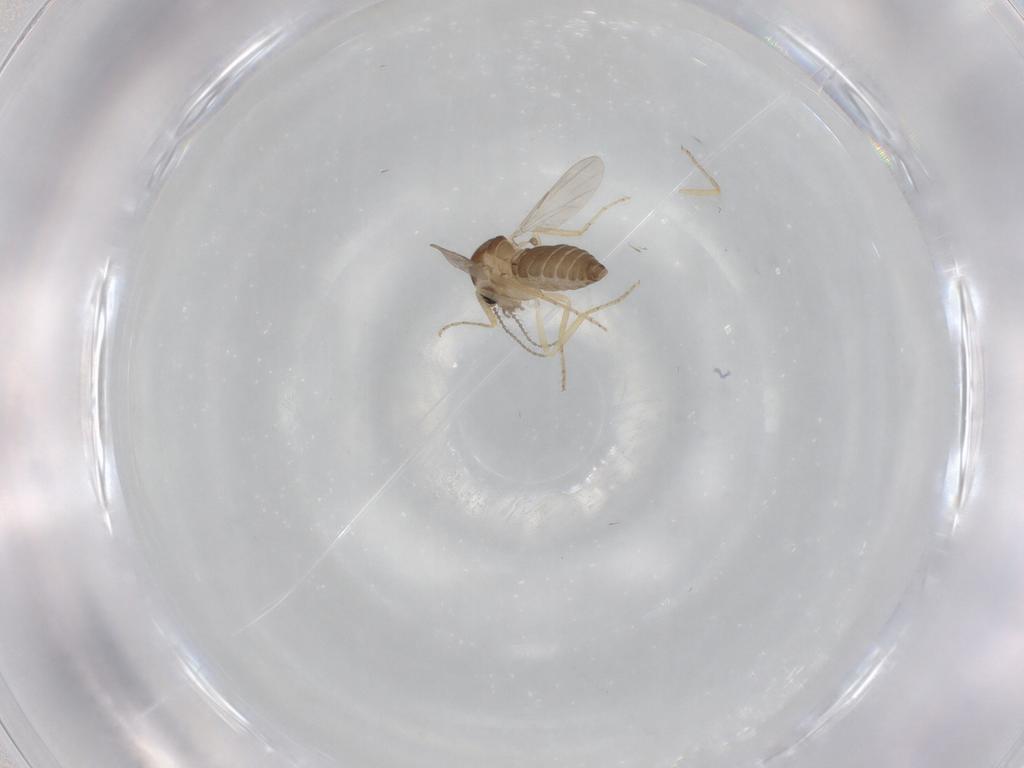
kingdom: Animalia
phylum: Arthropoda
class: Insecta
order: Diptera
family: Ceratopogonidae
